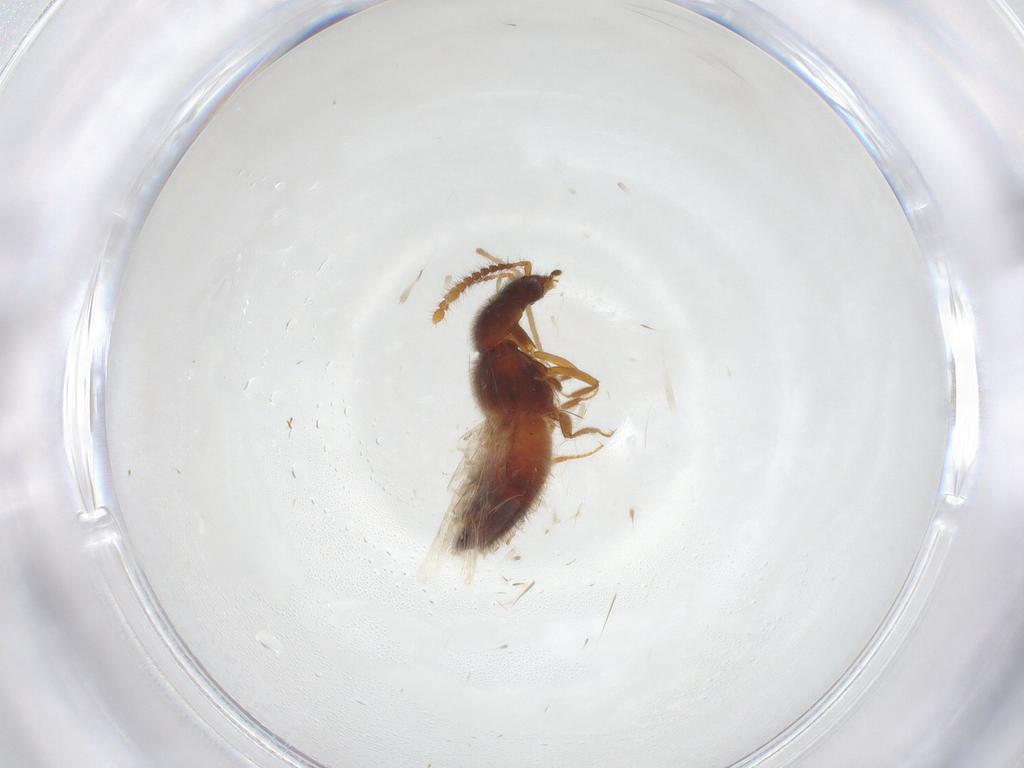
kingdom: Animalia
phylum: Arthropoda
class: Insecta
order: Coleoptera
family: Staphylinidae
